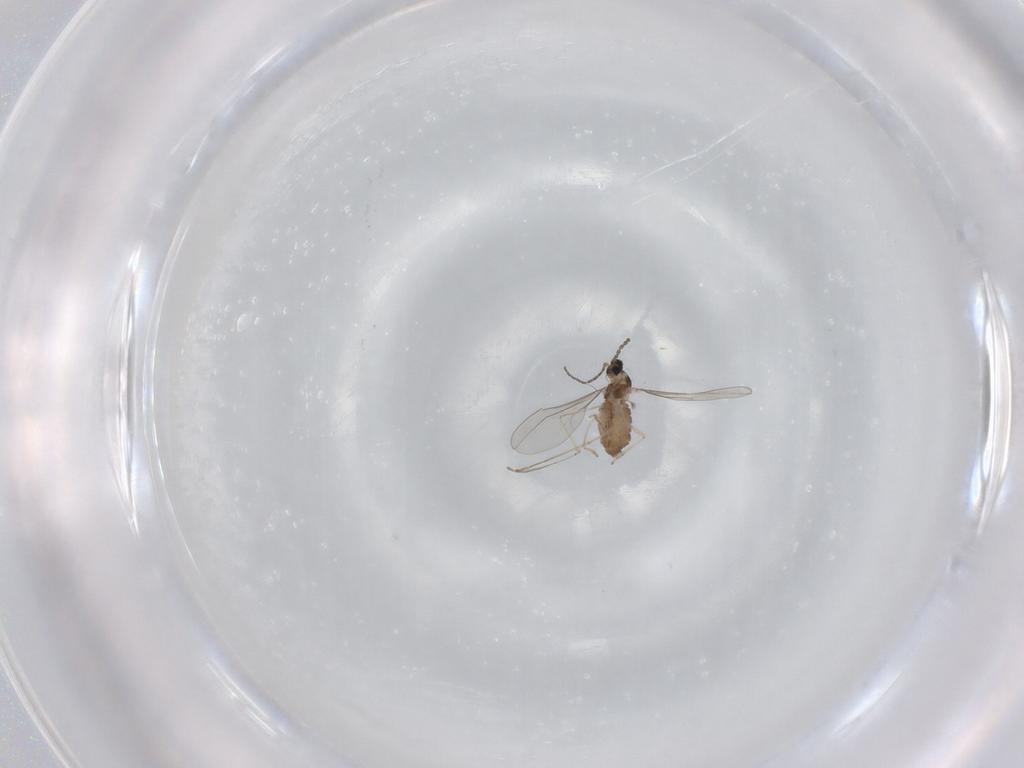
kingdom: Animalia
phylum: Arthropoda
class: Insecta
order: Diptera
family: Cecidomyiidae
